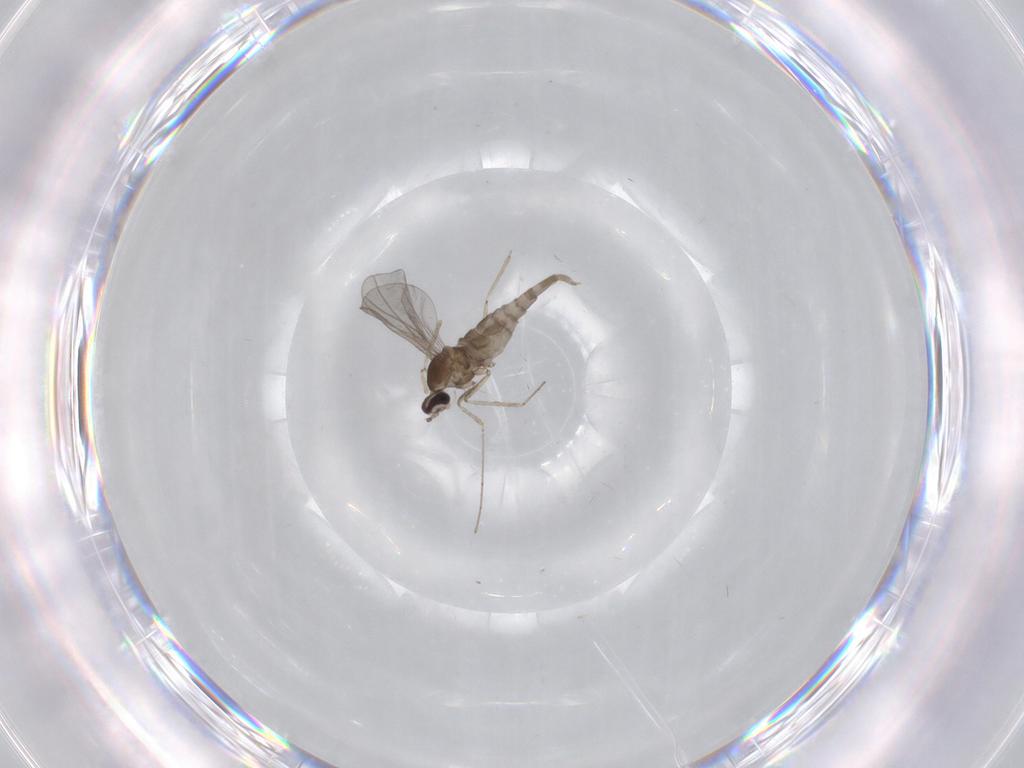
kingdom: Animalia
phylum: Arthropoda
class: Insecta
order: Diptera
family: Cecidomyiidae
